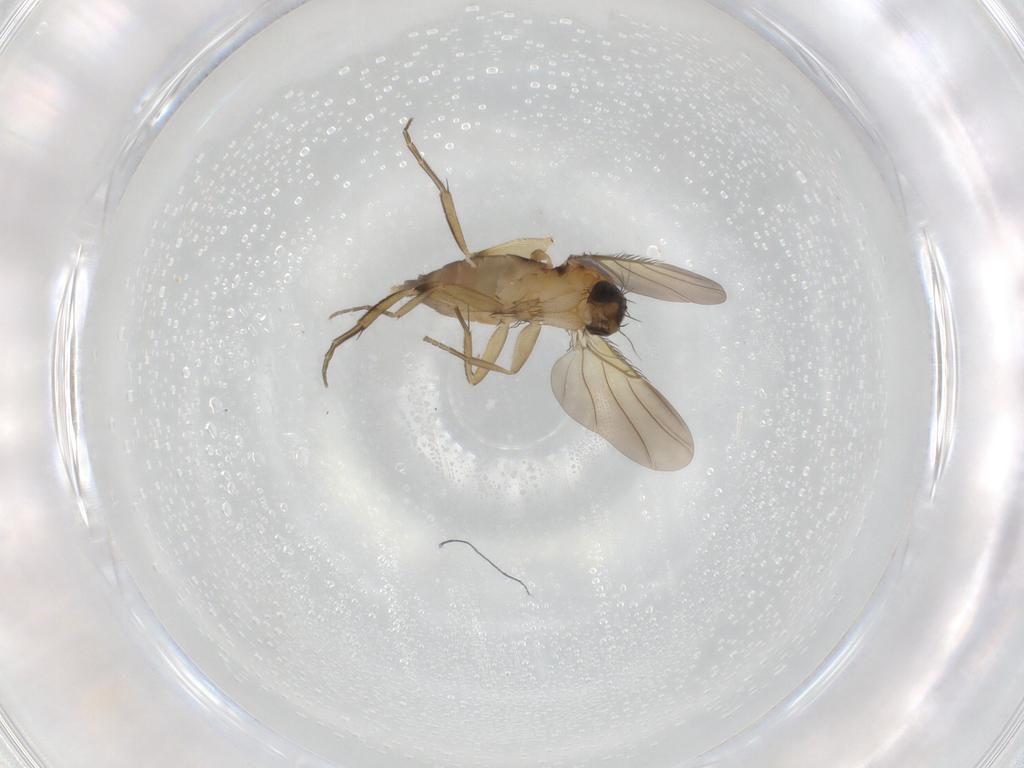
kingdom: Animalia
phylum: Arthropoda
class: Insecta
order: Diptera
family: Phoridae
